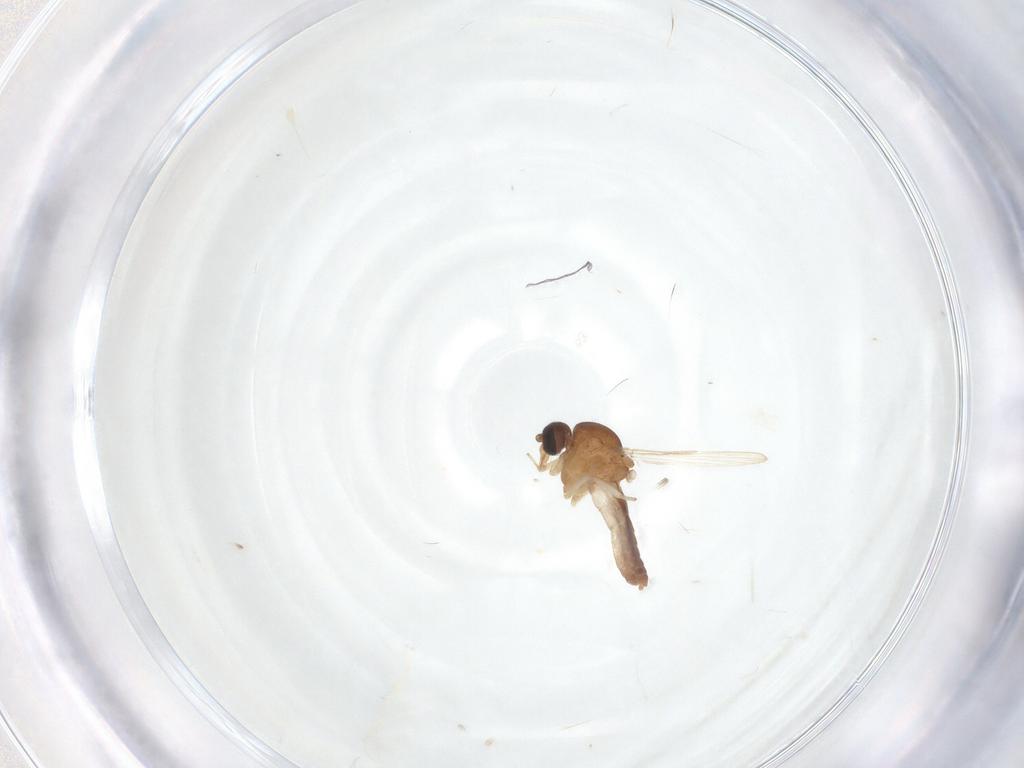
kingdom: Animalia
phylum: Arthropoda
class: Insecta
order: Diptera
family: Ceratopogonidae
